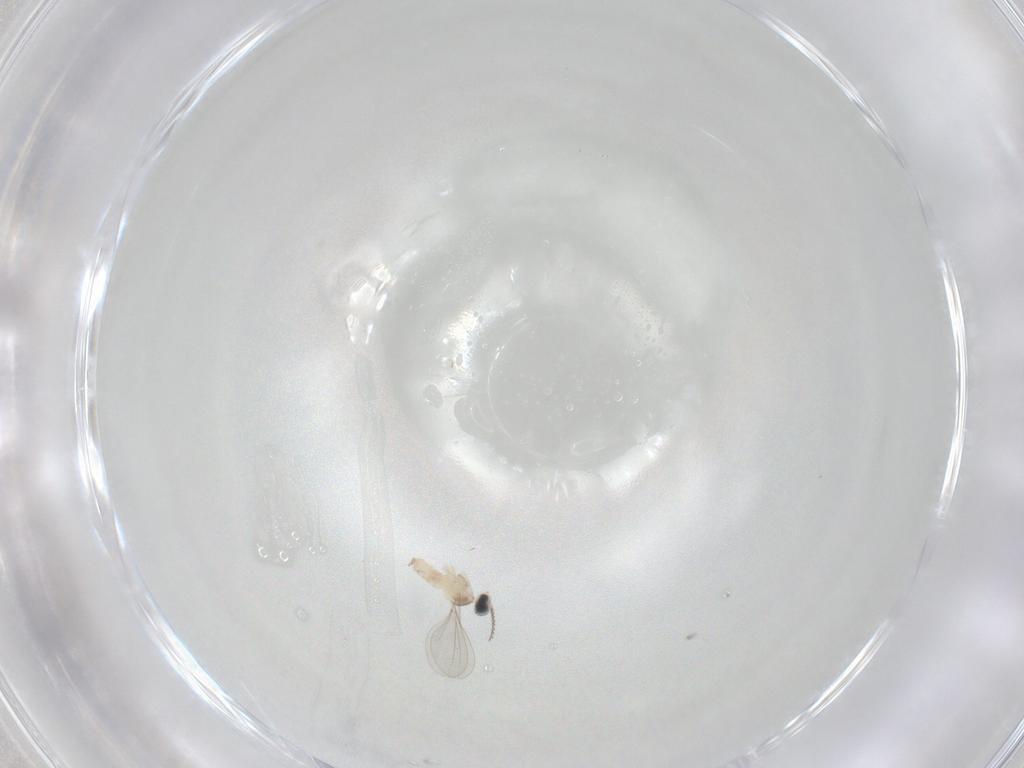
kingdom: Animalia
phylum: Arthropoda
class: Insecta
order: Diptera
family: Cecidomyiidae
